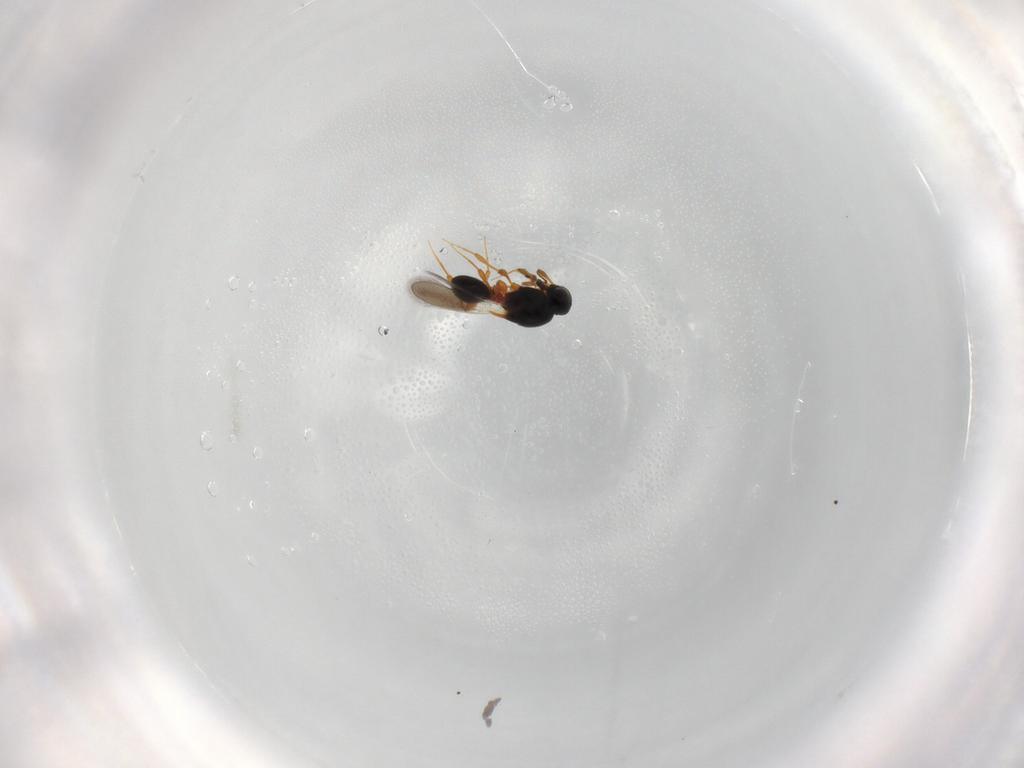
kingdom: Animalia
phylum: Arthropoda
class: Insecta
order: Hymenoptera
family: Platygastridae
